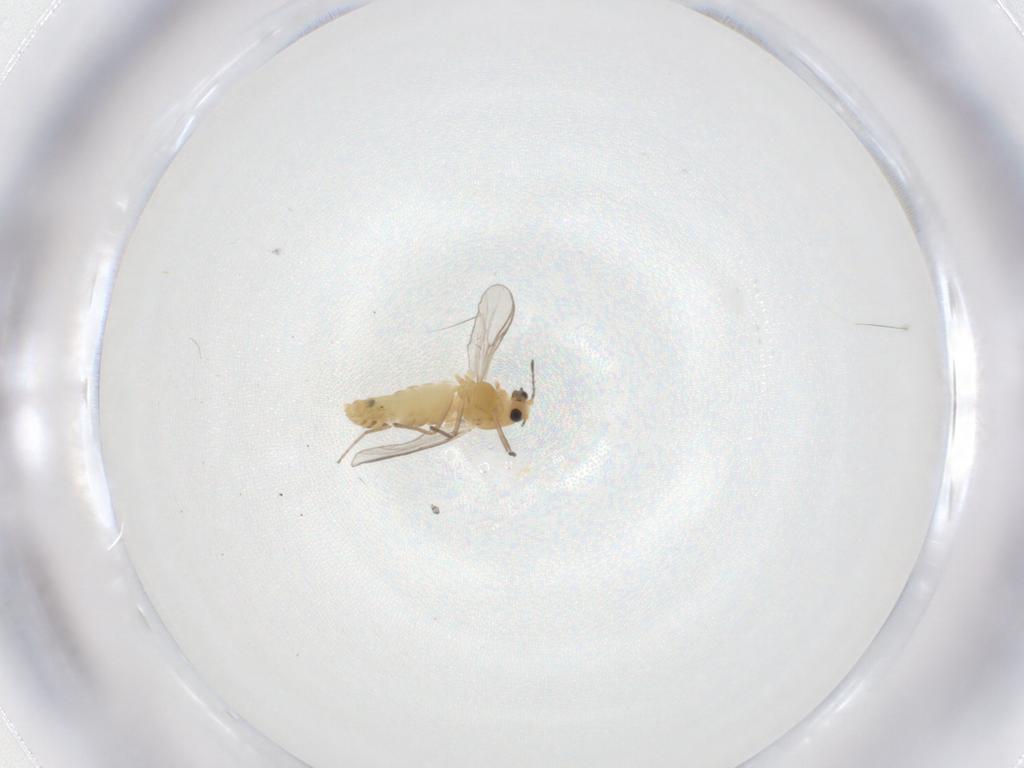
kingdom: Animalia
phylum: Arthropoda
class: Insecta
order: Diptera
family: Chironomidae
